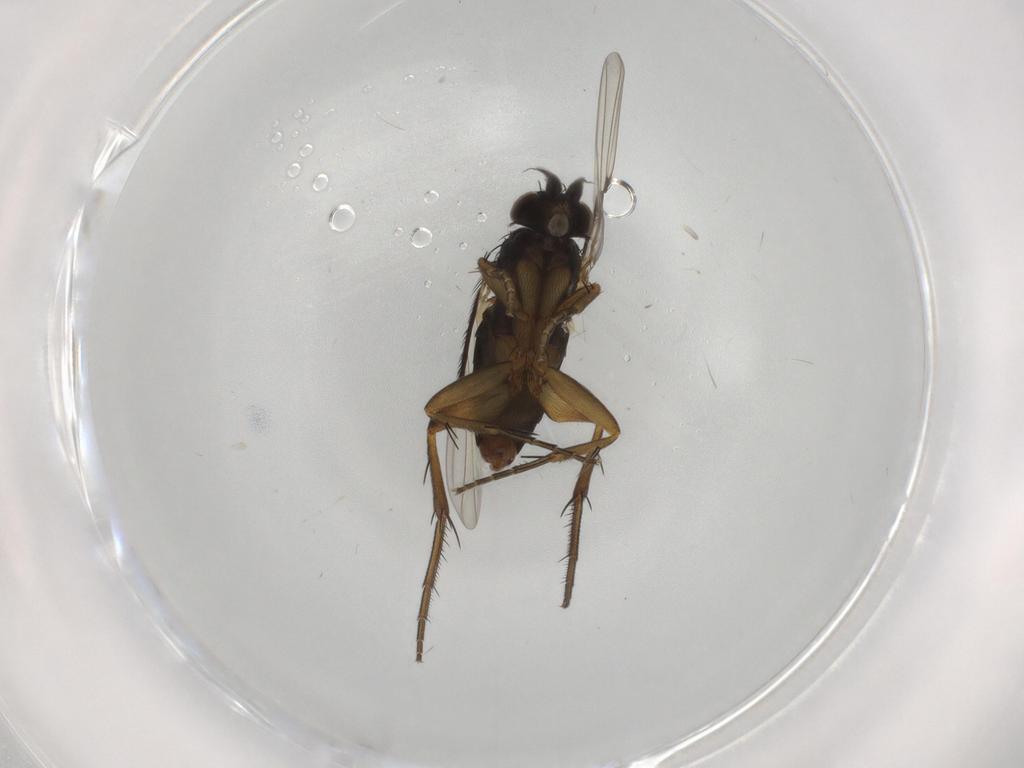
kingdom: Animalia
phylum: Arthropoda
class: Insecta
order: Diptera
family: Phoridae
